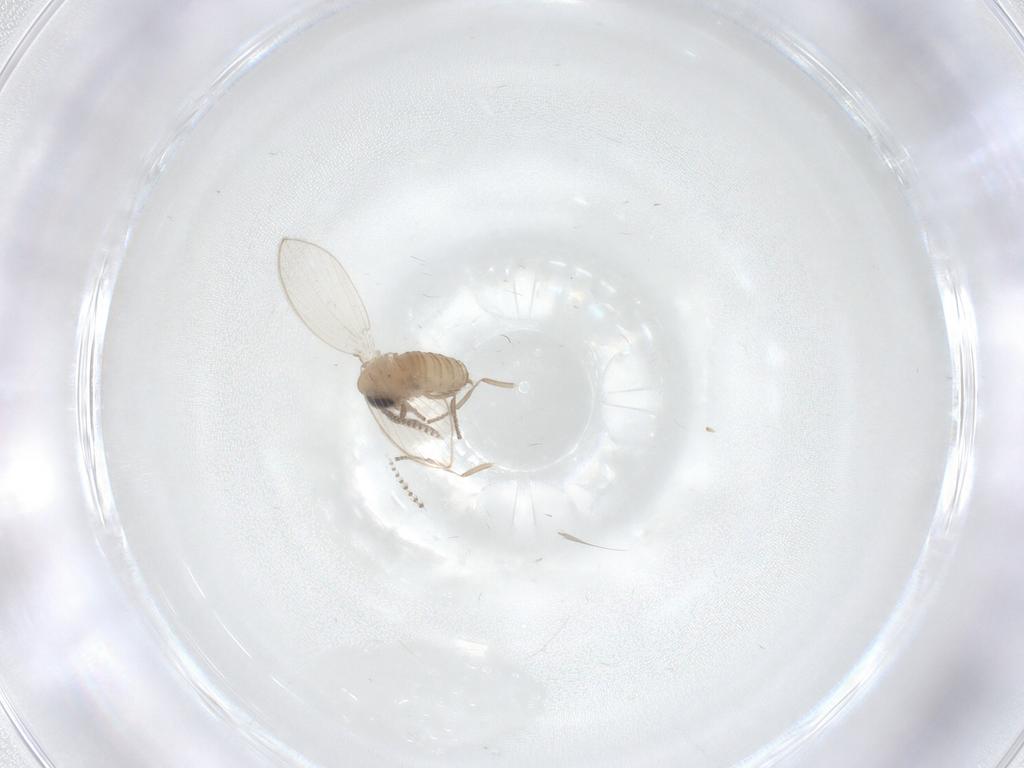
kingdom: Animalia
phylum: Arthropoda
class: Insecta
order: Diptera
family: Psychodidae
